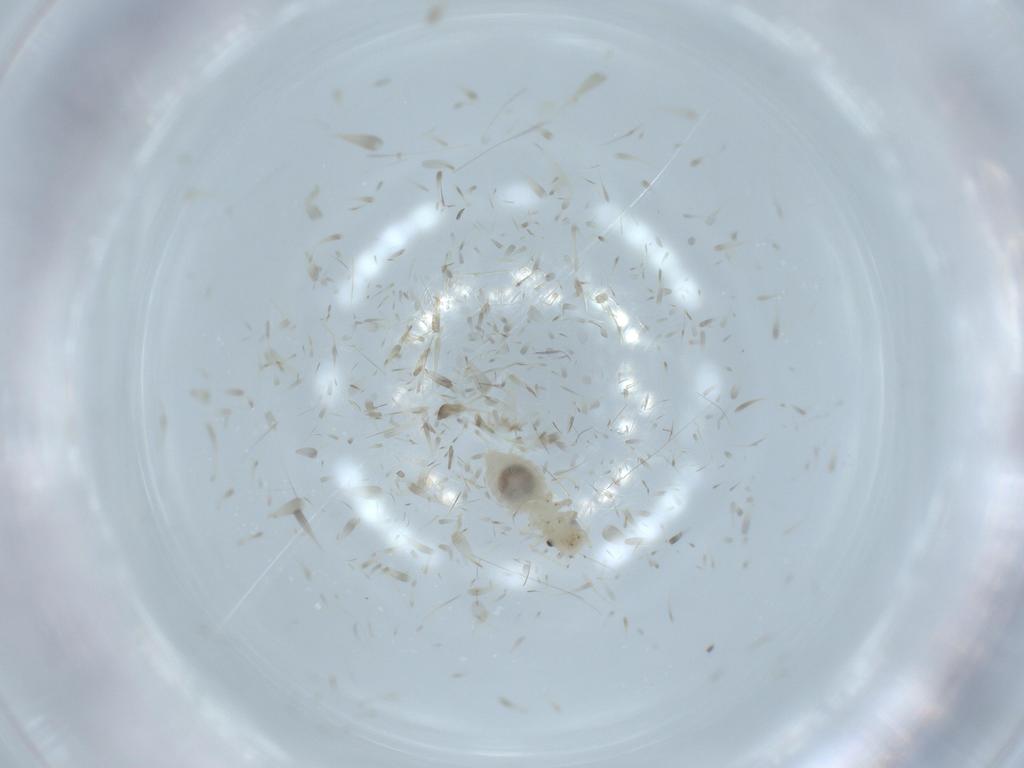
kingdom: Animalia
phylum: Arthropoda
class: Insecta
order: Psocodea
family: Caeciliusidae
